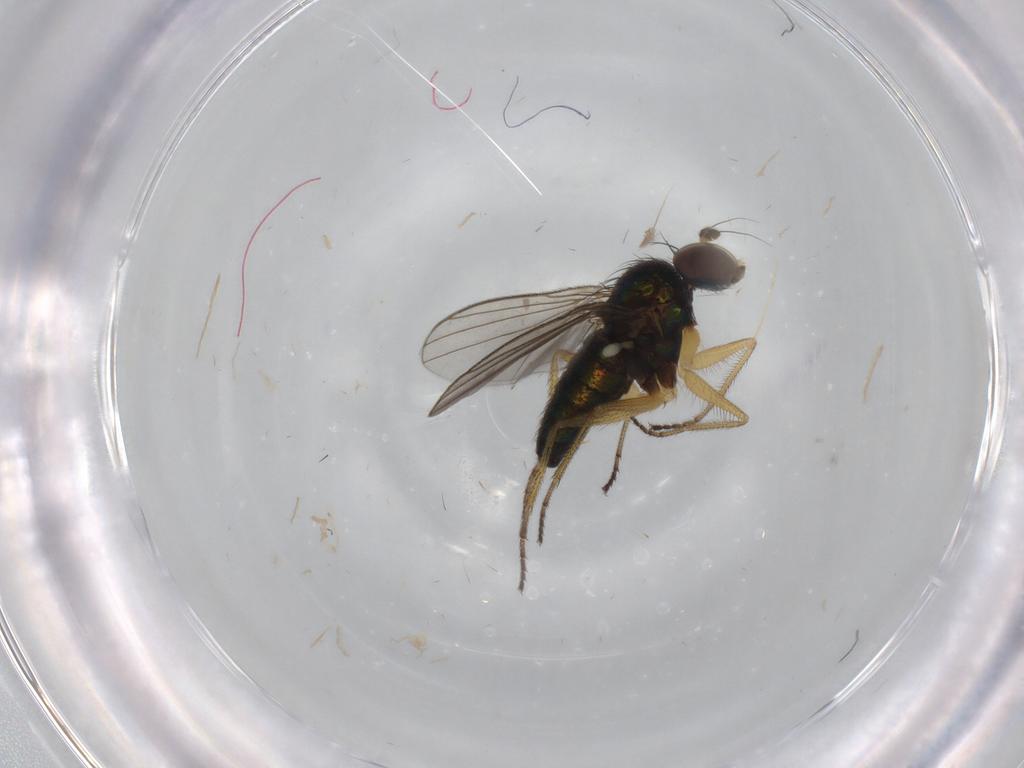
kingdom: Animalia
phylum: Arthropoda
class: Insecta
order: Diptera
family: Dolichopodidae
